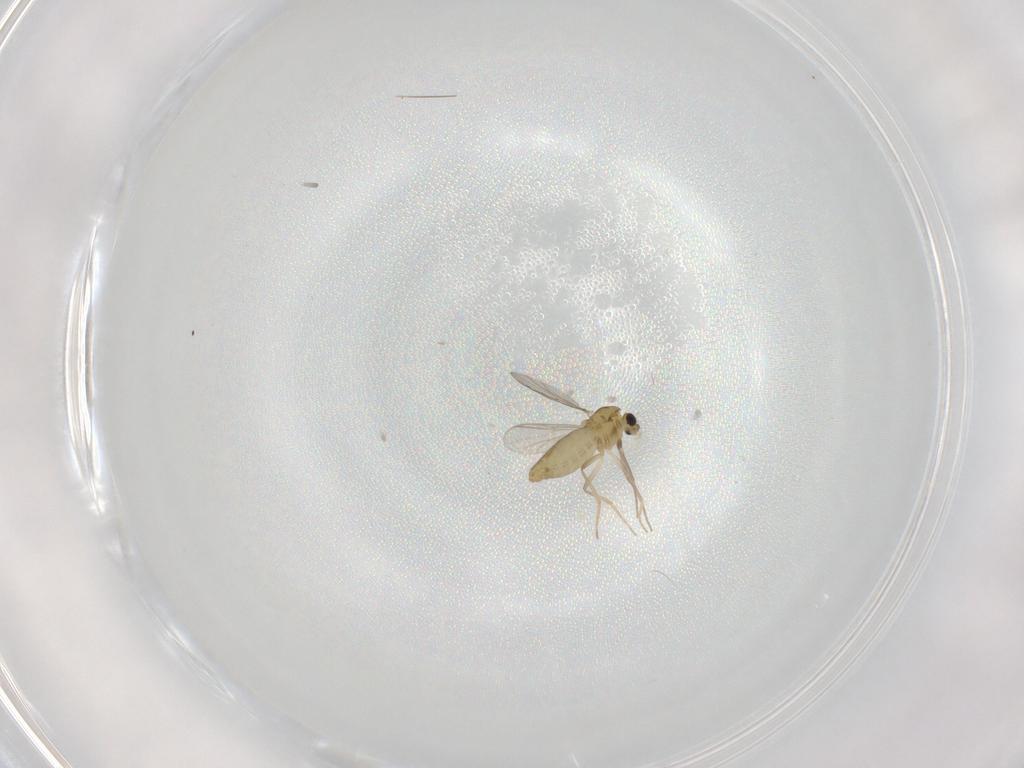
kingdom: Animalia
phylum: Arthropoda
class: Insecta
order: Diptera
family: Chironomidae
